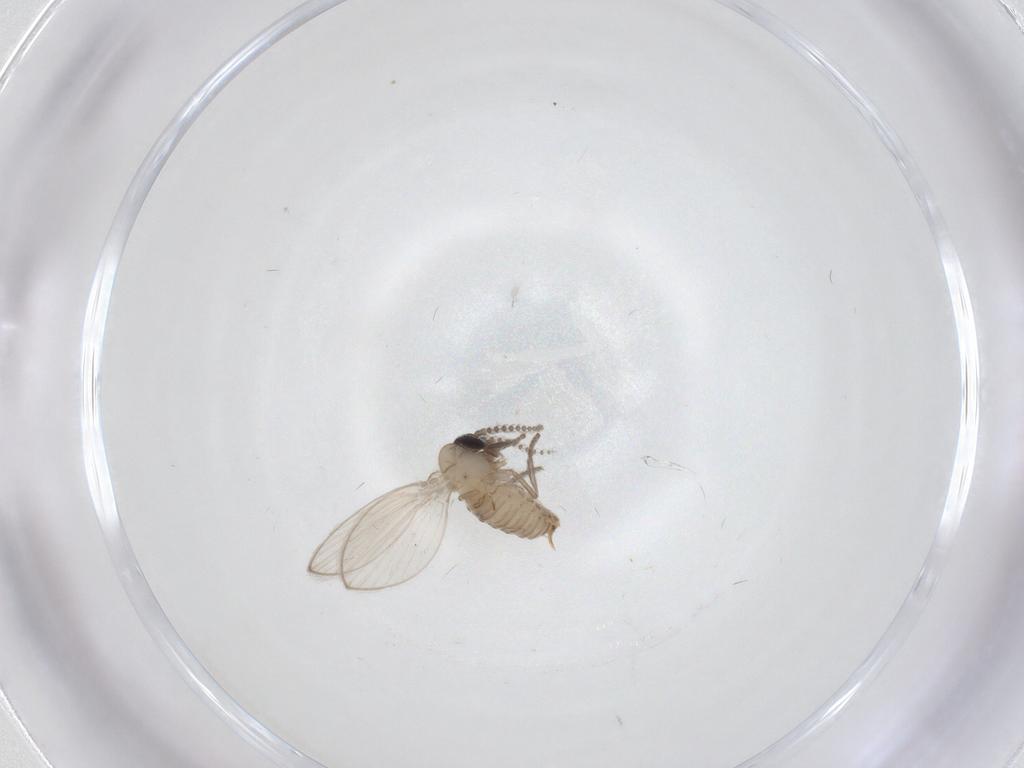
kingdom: Animalia
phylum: Arthropoda
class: Insecta
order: Diptera
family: Psychodidae
